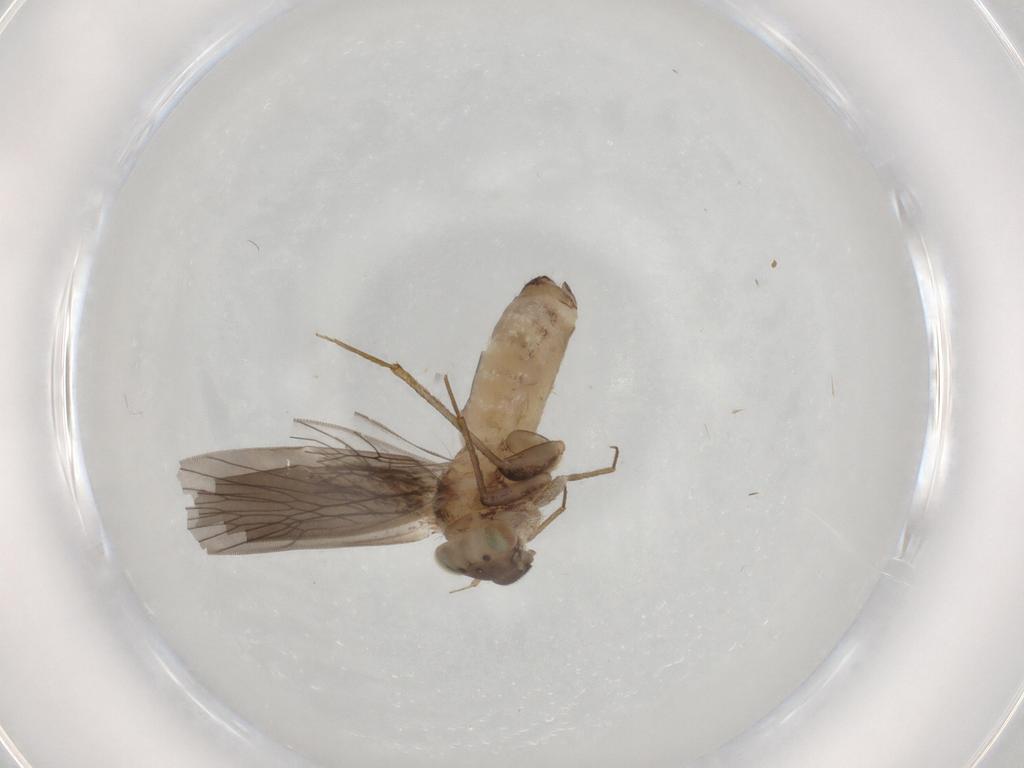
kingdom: Animalia
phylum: Arthropoda
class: Insecta
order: Psocodea
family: Lepidopsocidae
